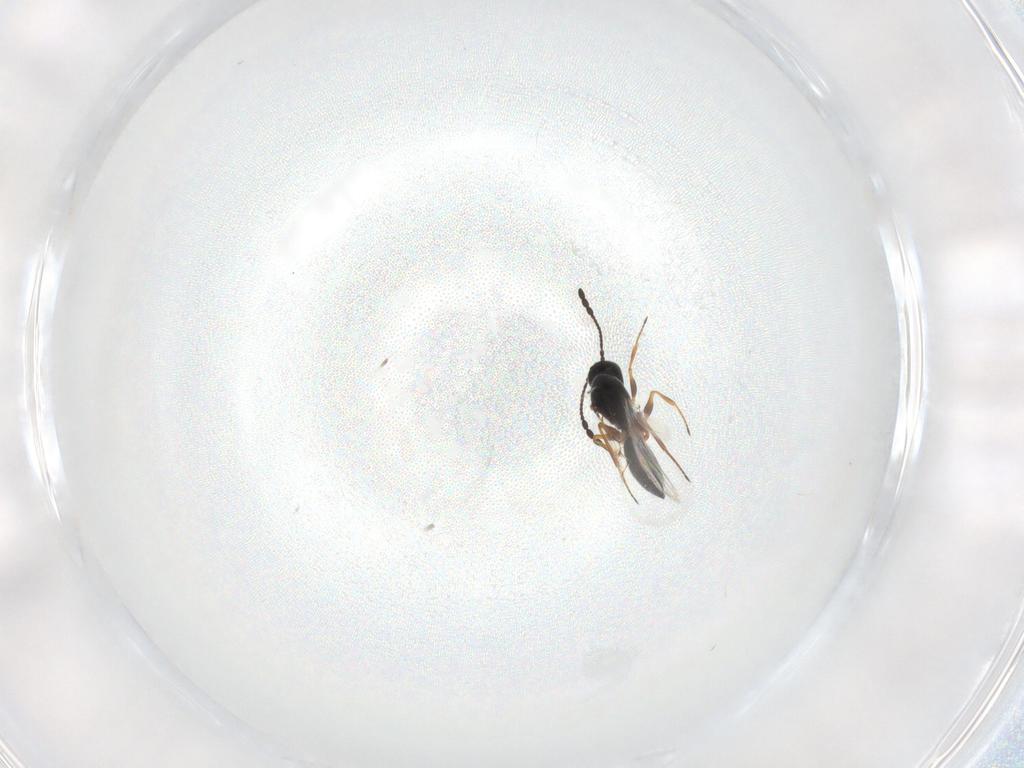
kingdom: Animalia
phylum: Arthropoda
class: Insecta
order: Hymenoptera
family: Figitidae
